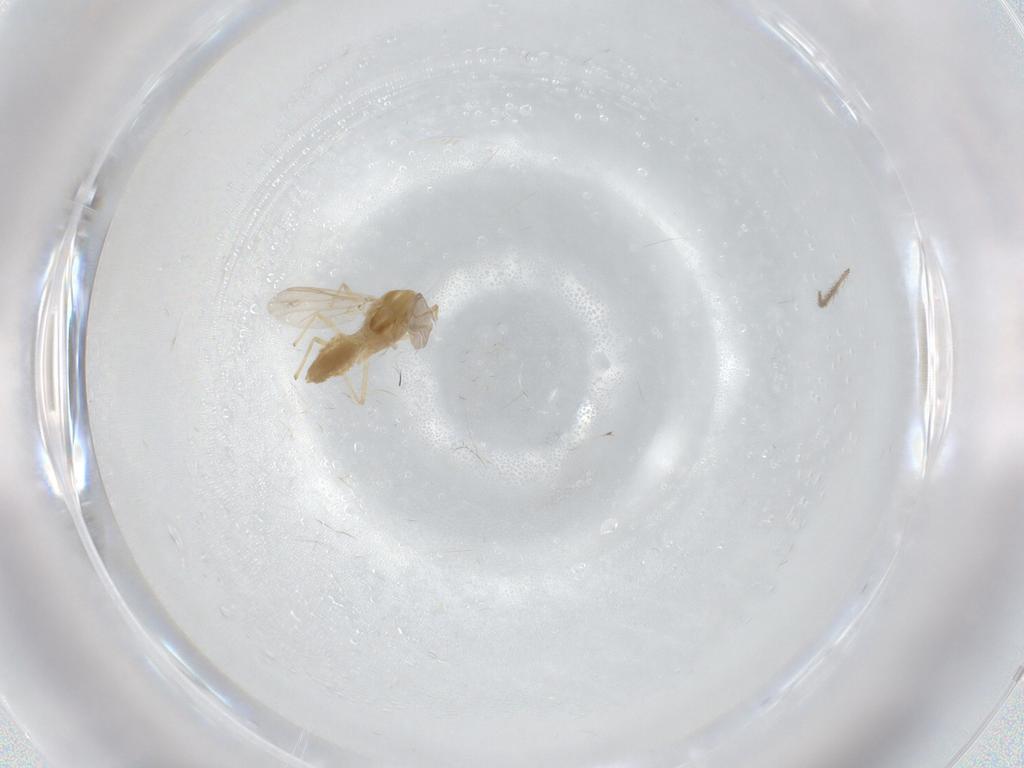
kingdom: Animalia
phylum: Arthropoda
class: Insecta
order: Diptera
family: Chironomidae
